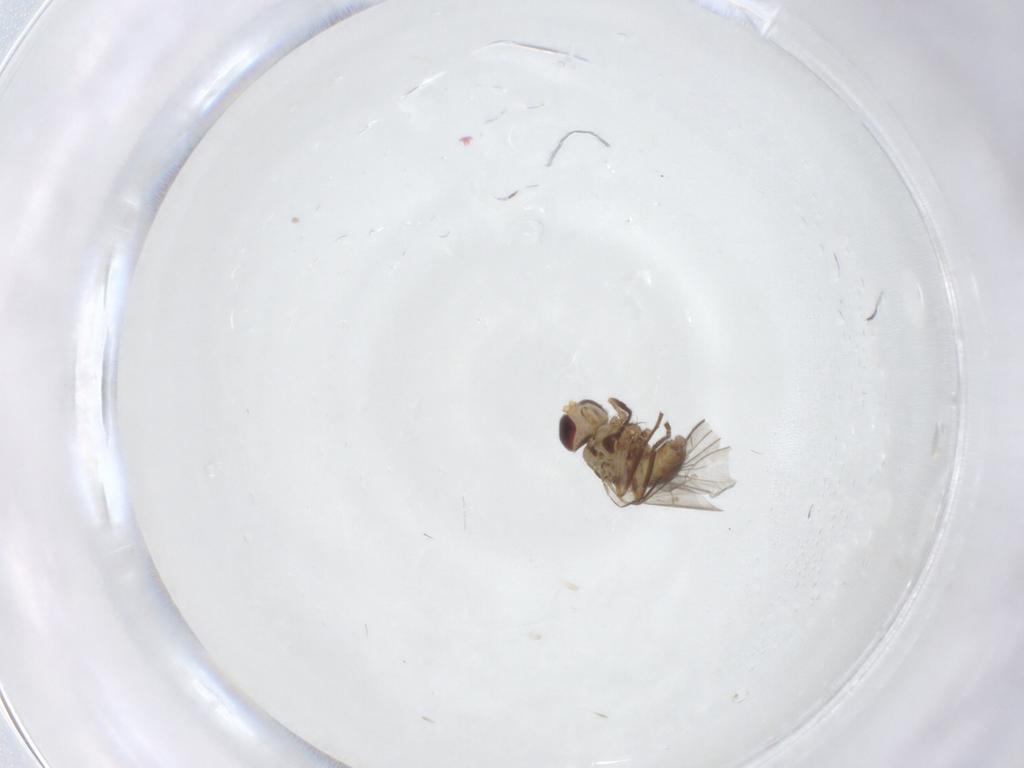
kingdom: Animalia
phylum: Arthropoda
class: Insecta
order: Diptera
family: Agromyzidae
